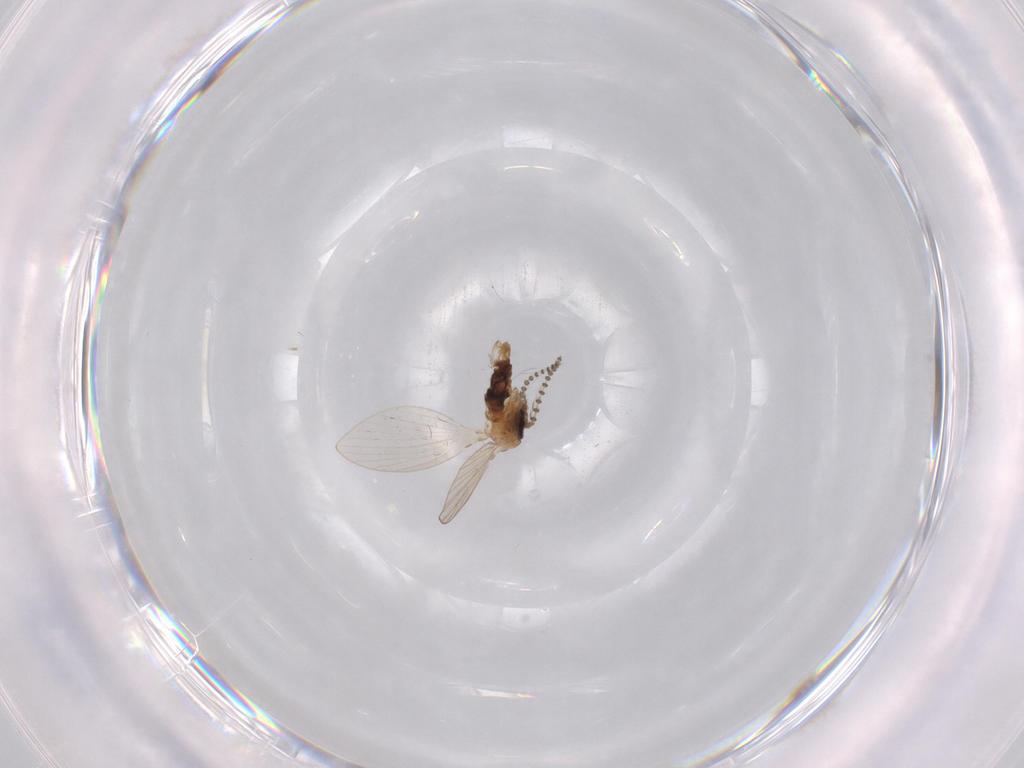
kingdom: Animalia
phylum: Arthropoda
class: Insecta
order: Diptera
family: Psychodidae
